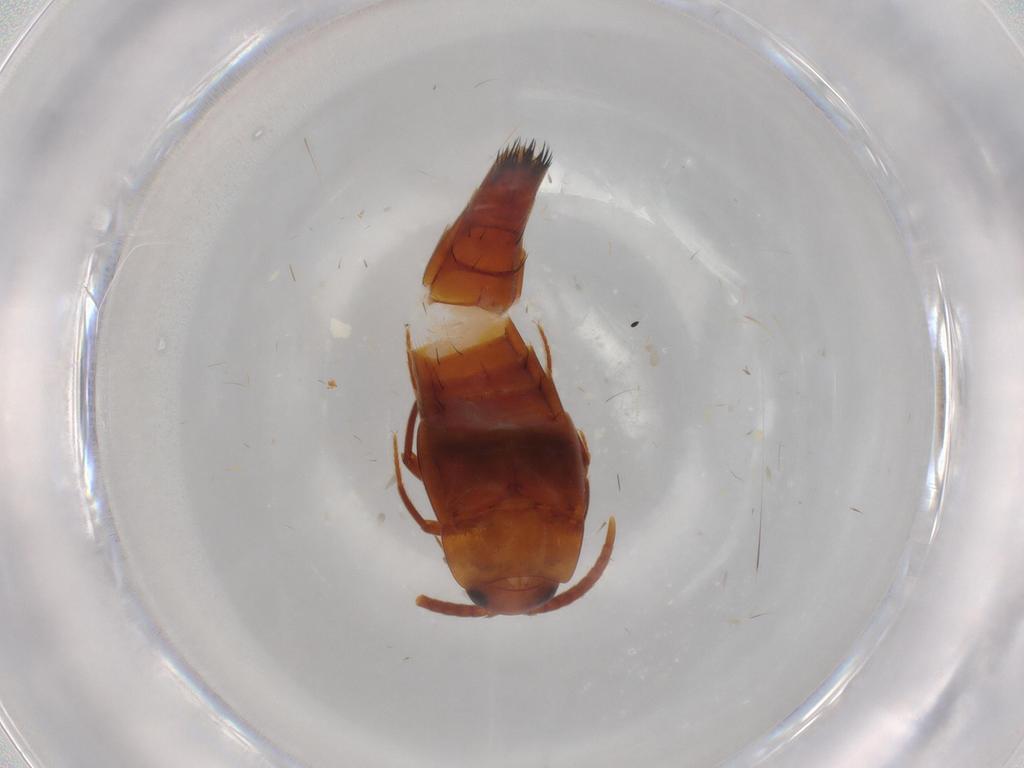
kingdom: Animalia
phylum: Arthropoda
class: Insecta
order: Coleoptera
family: Staphylinidae
